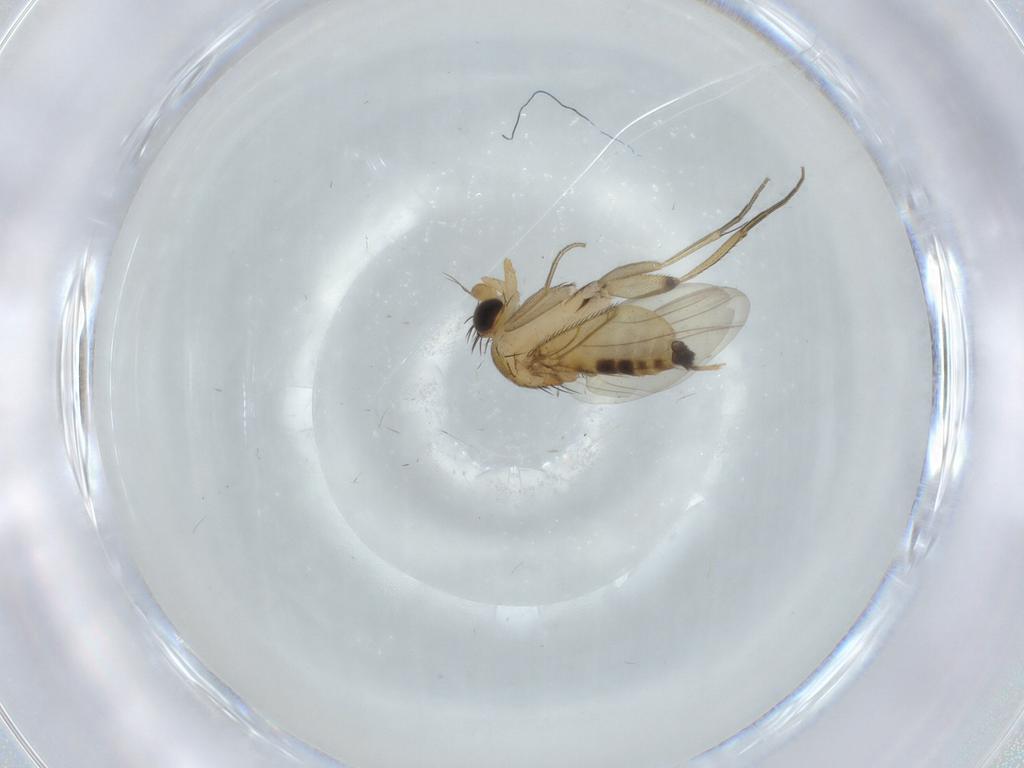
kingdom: Animalia
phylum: Arthropoda
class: Insecta
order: Diptera
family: Phoridae
